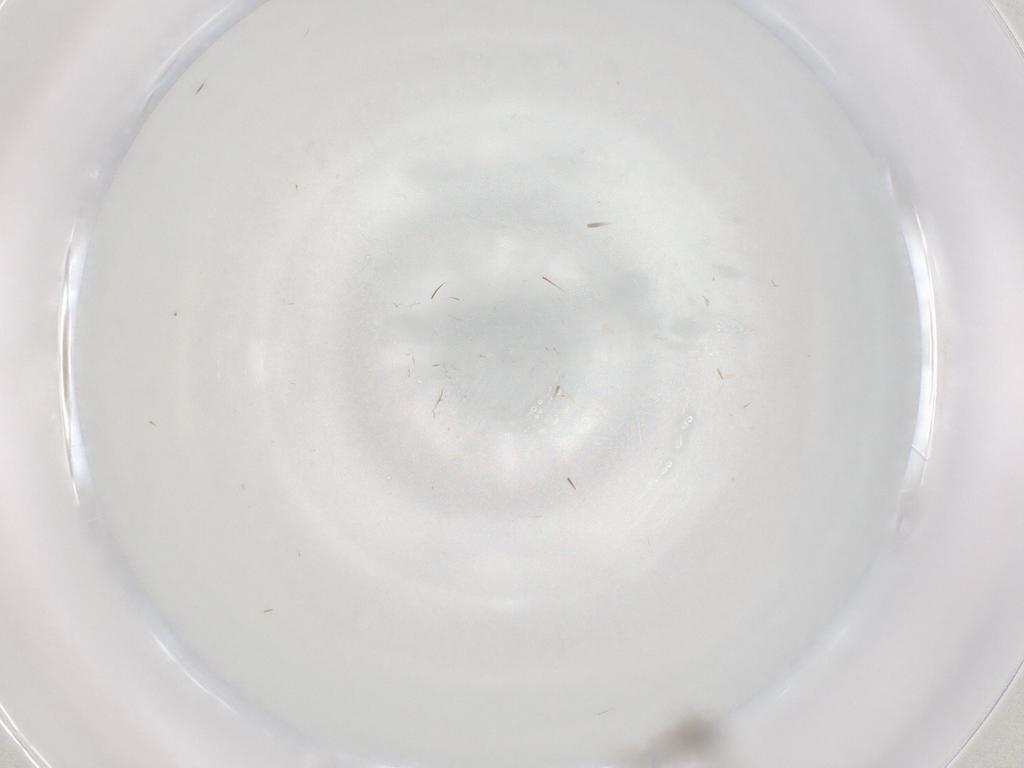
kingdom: Animalia
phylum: Arthropoda
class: Insecta
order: Diptera
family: Cecidomyiidae
